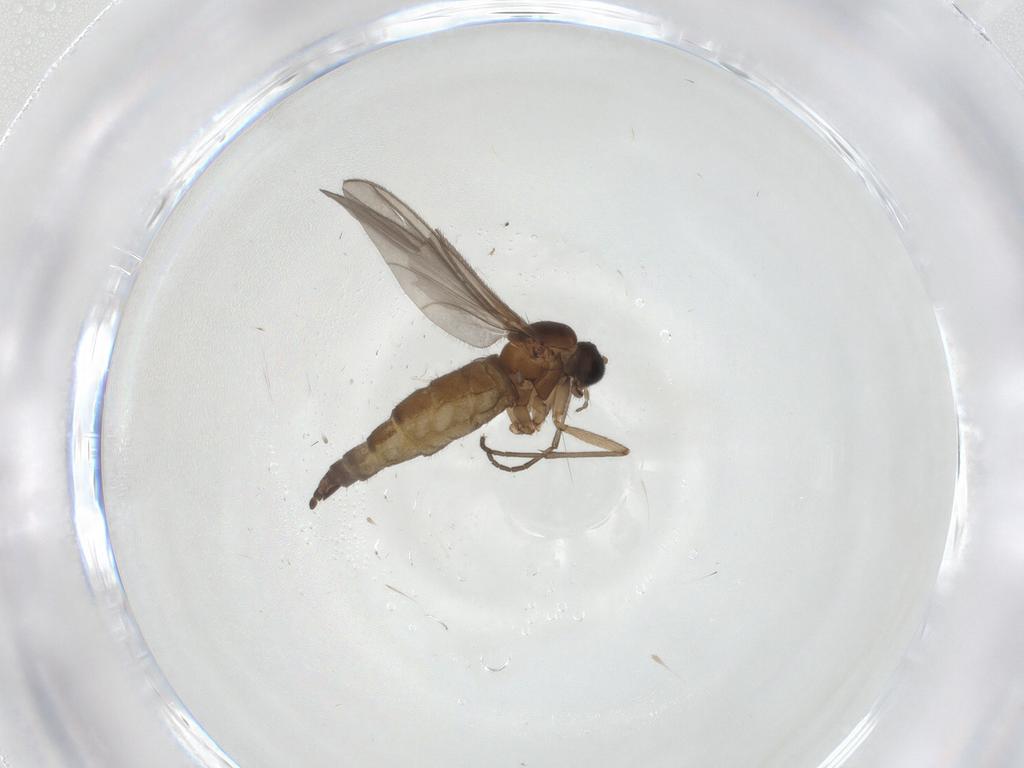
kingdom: Animalia
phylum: Arthropoda
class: Insecta
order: Diptera
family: Sciaridae
